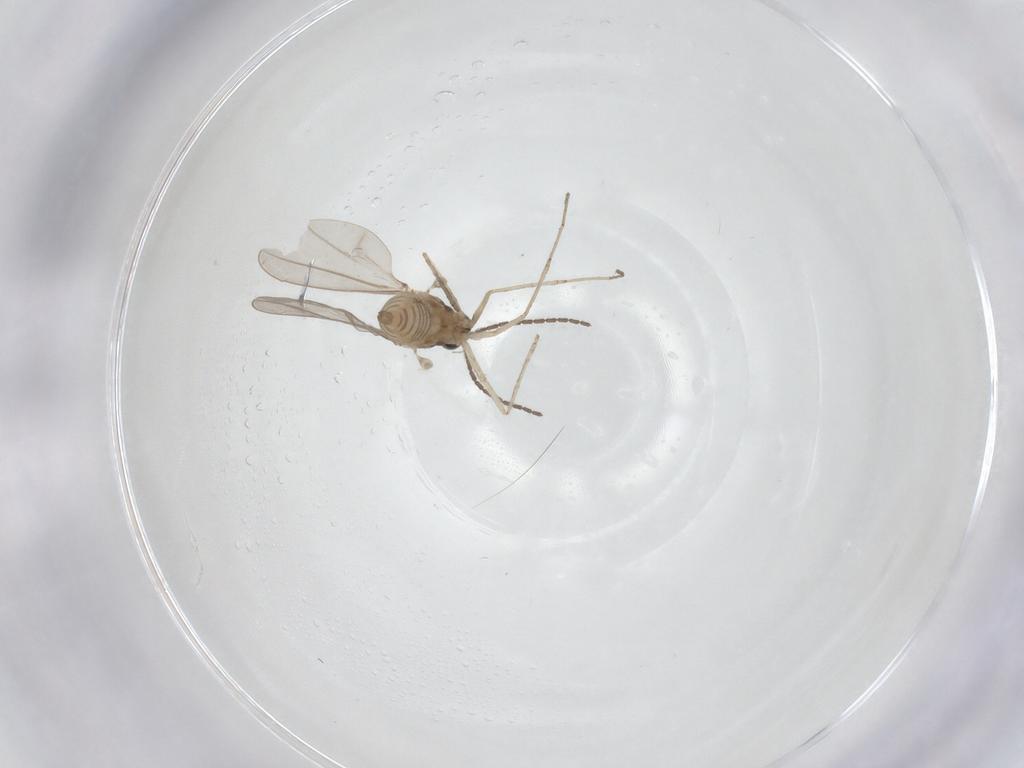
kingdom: Animalia
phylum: Arthropoda
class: Insecta
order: Diptera
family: Cecidomyiidae
